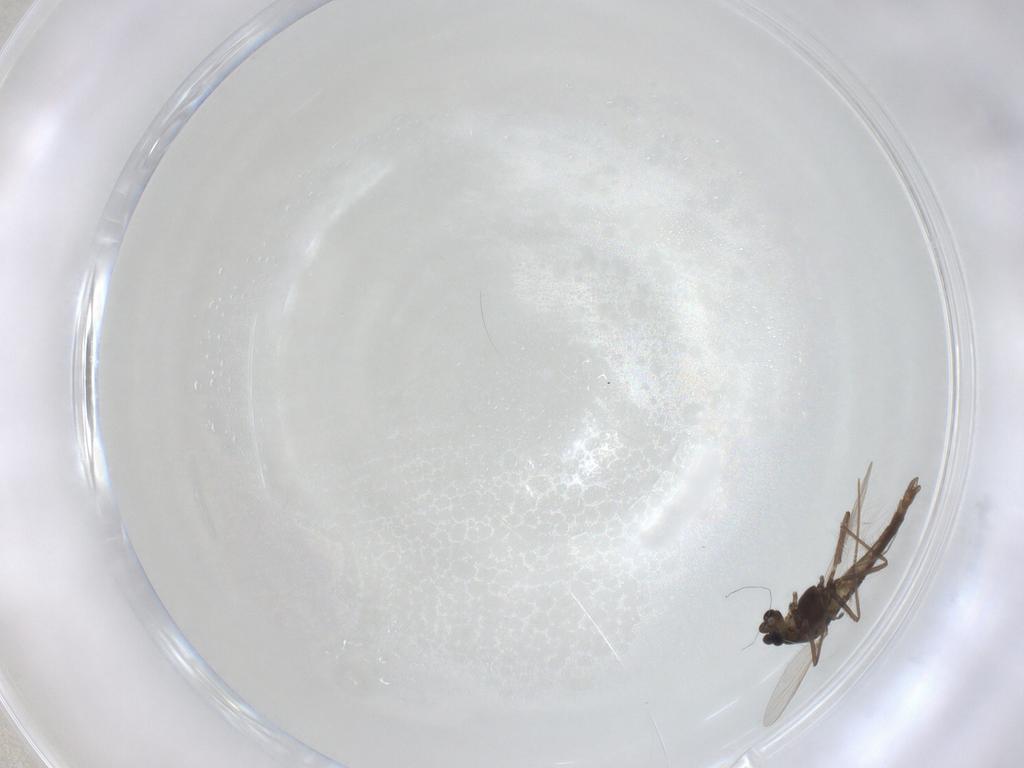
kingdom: Animalia
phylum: Arthropoda
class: Insecta
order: Diptera
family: Chironomidae
